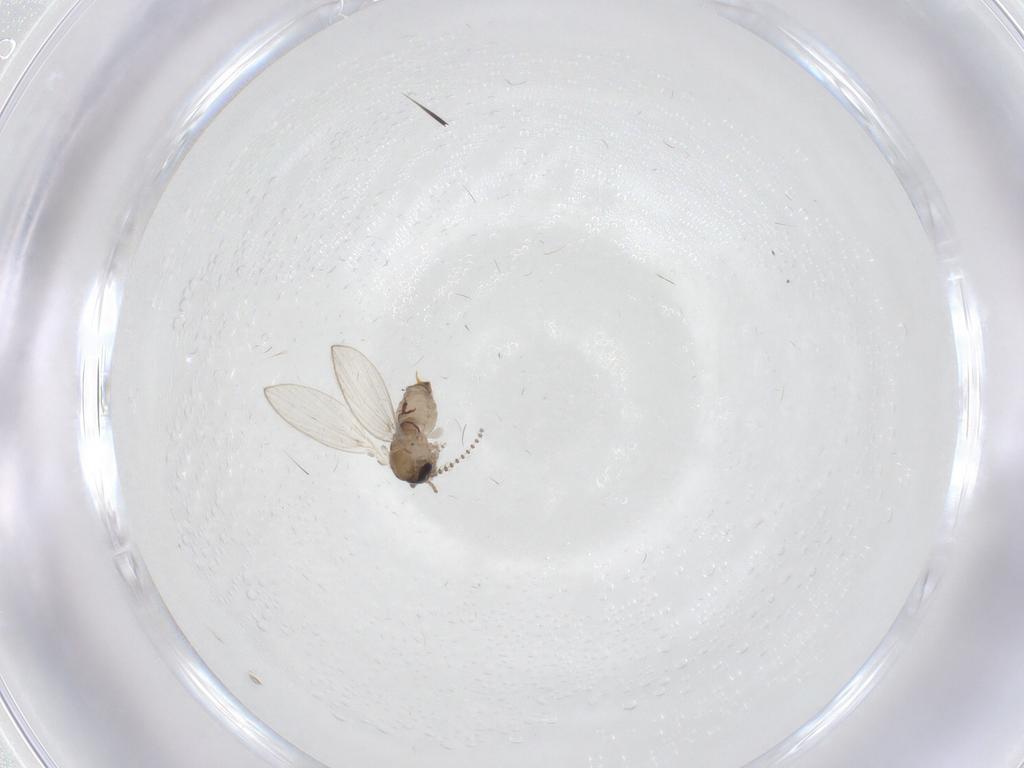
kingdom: Animalia
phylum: Arthropoda
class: Insecta
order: Diptera
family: Psychodidae
